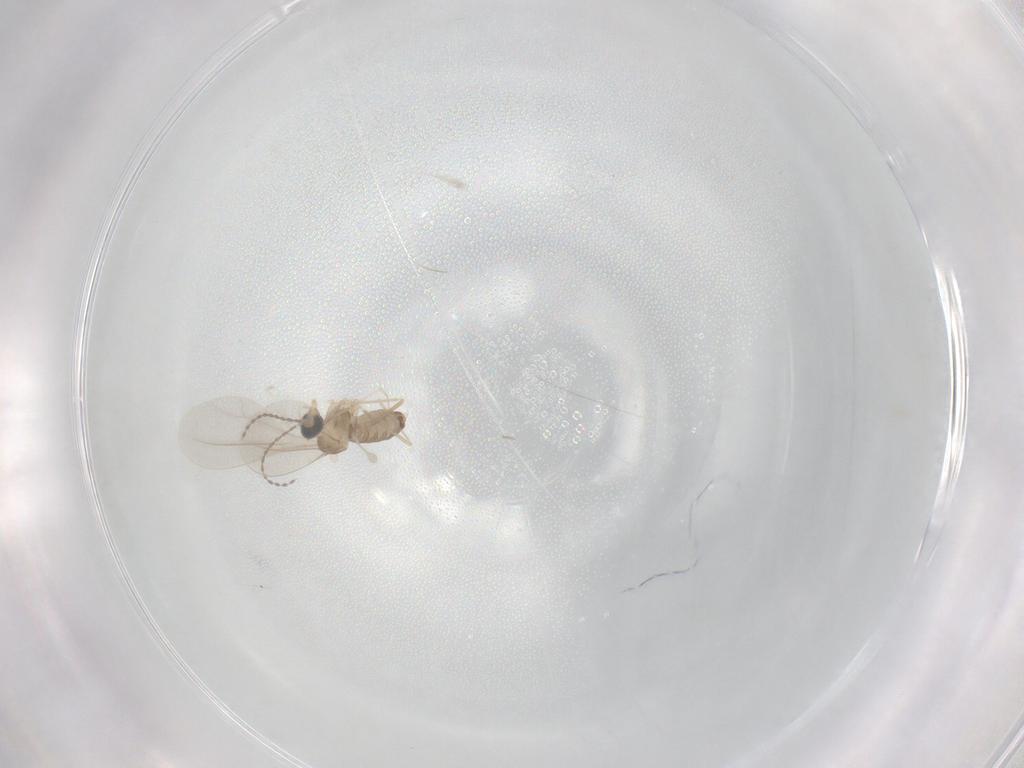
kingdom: Animalia
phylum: Arthropoda
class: Insecta
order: Diptera
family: Cecidomyiidae
